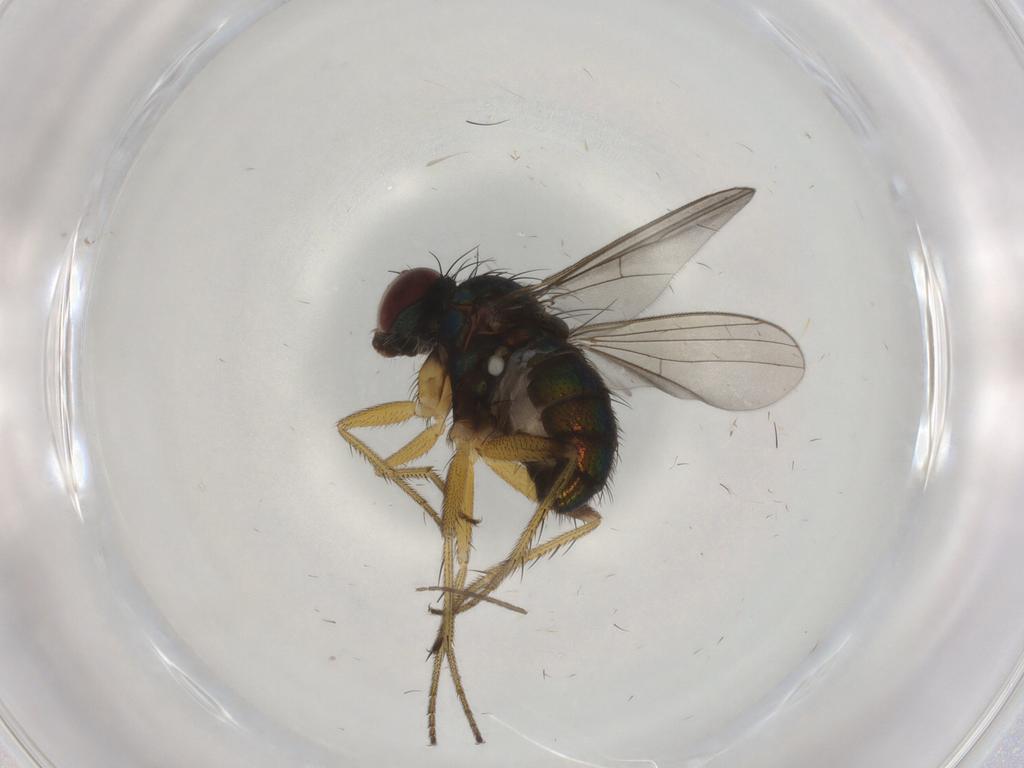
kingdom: Animalia
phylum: Arthropoda
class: Insecta
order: Diptera
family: Dolichopodidae
